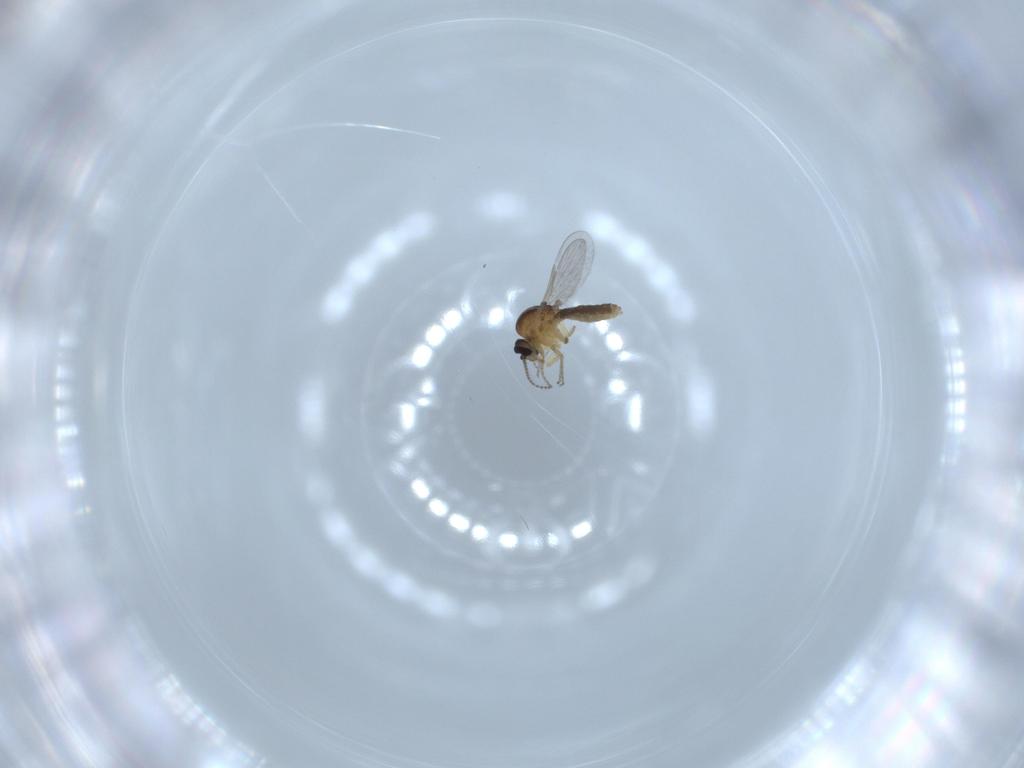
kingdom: Animalia
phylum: Arthropoda
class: Insecta
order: Diptera
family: Ceratopogonidae
